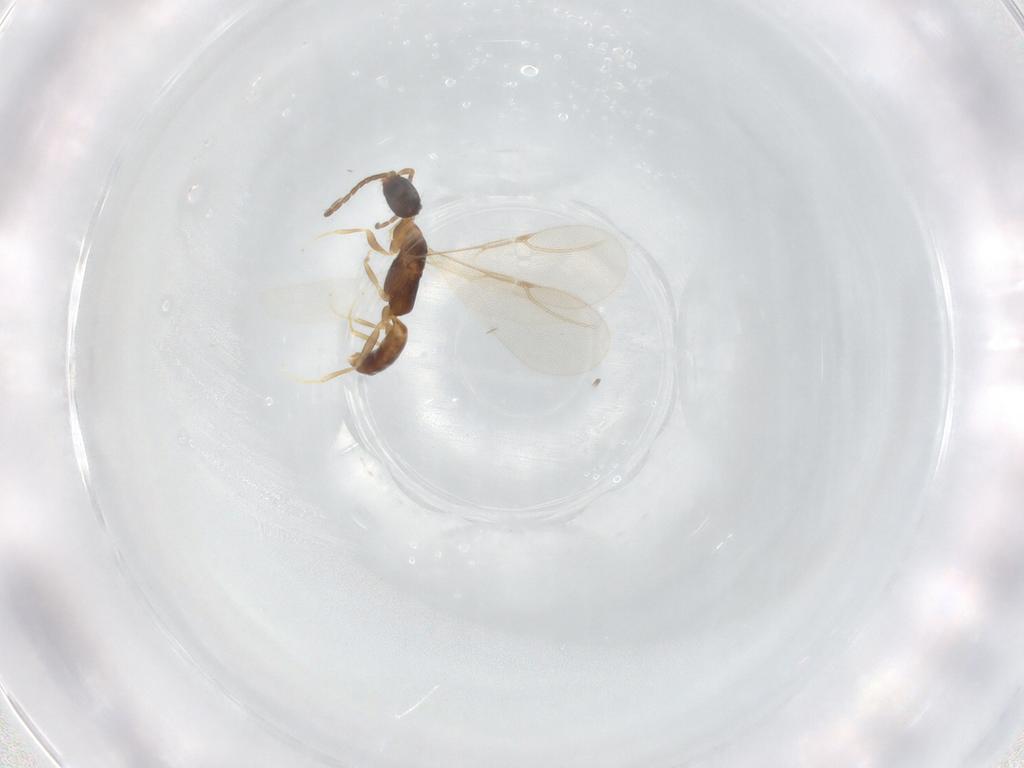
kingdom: Animalia
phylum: Arthropoda
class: Insecta
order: Hymenoptera
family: Bethylidae
